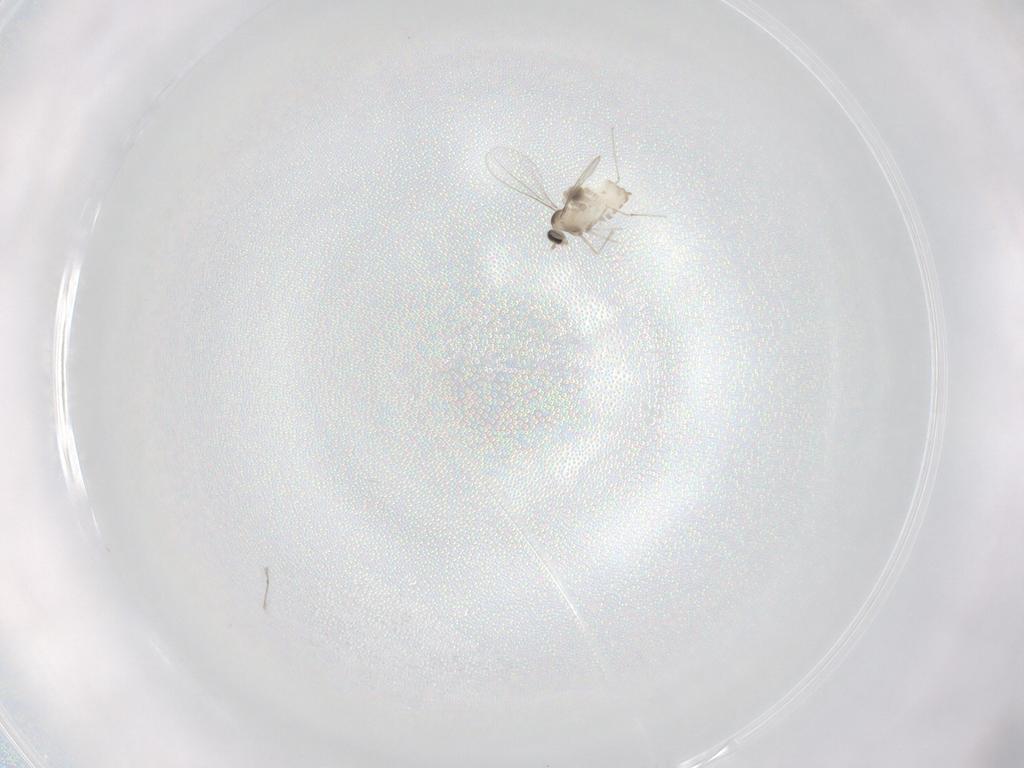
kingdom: Animalia
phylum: Arthropoda
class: Insecta
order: Diptera
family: Cecidomyiidae
